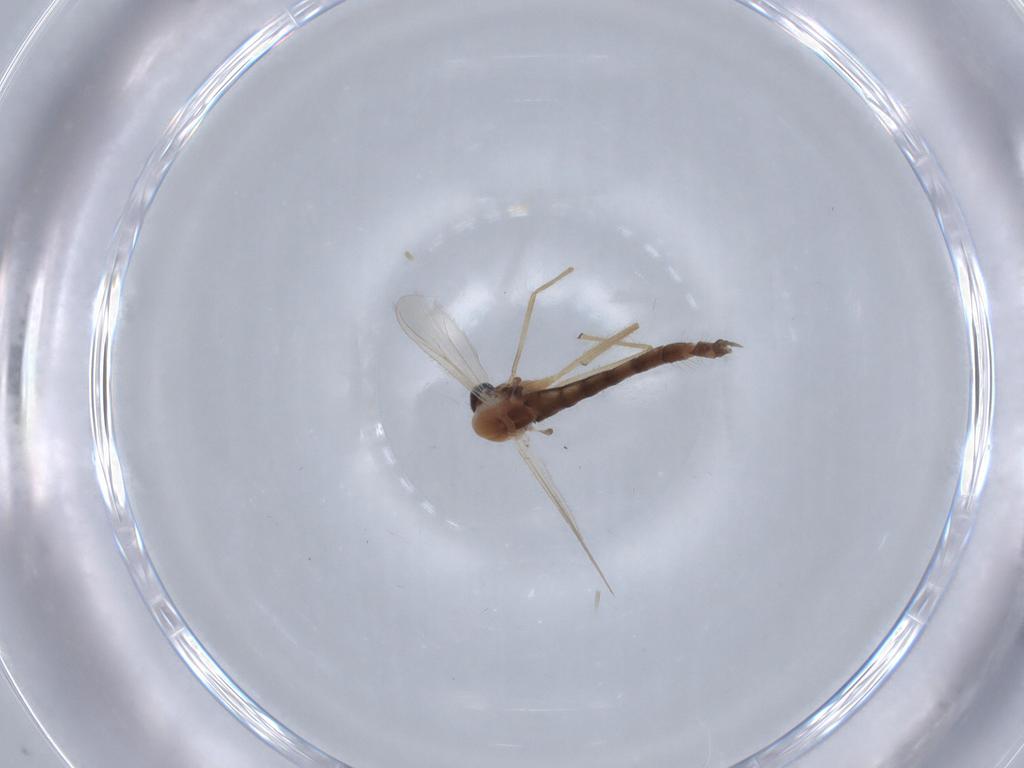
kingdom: Animalia
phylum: Arthropoda
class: Insecta
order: Diptera
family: Chironomidae
